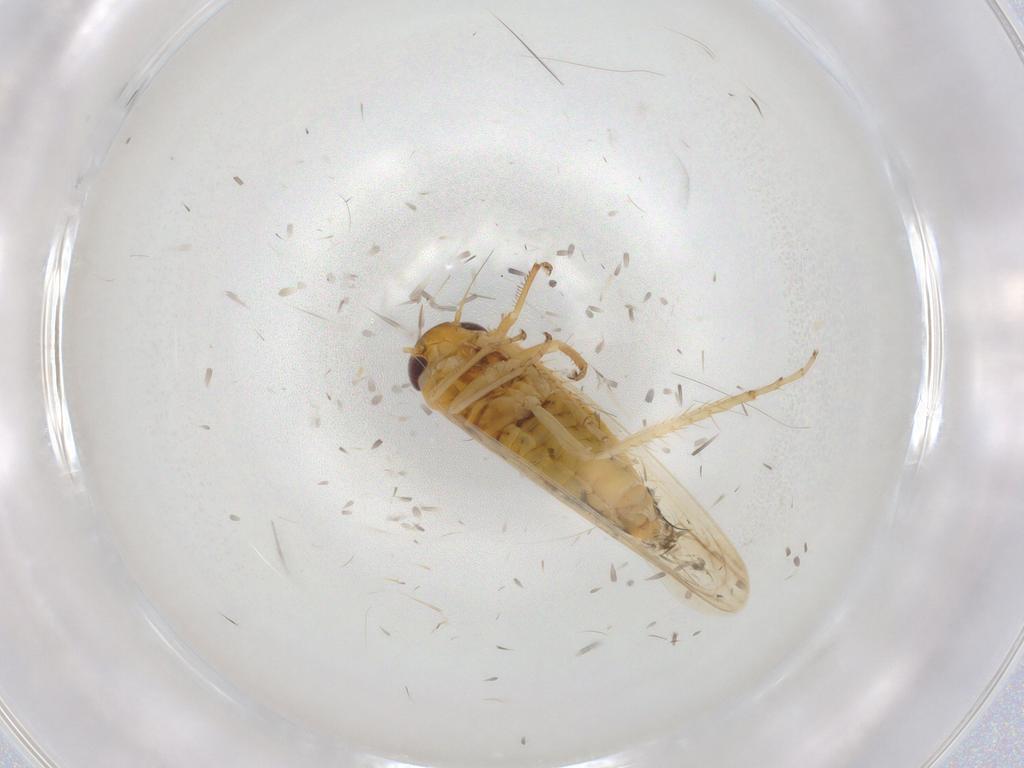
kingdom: Animalia
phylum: Arthropoda
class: Insecta
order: Hemiptera
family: Cicadellidae
